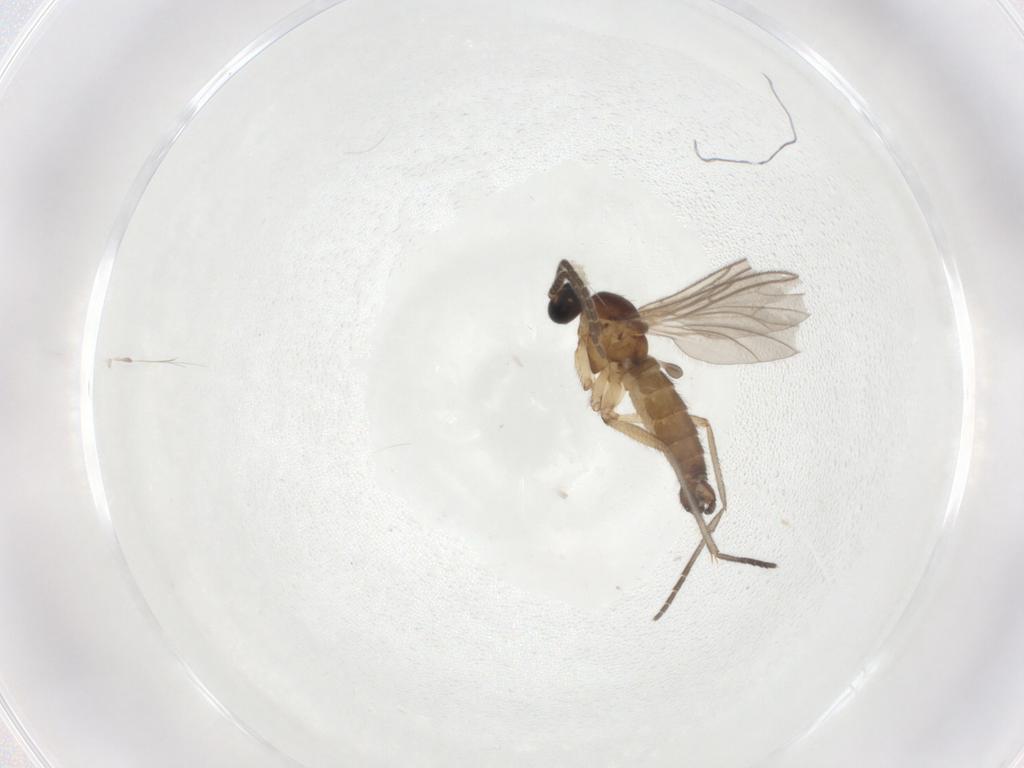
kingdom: Animalia
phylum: Arthropoda
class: Insecta
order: Diptera
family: Sciaridae
